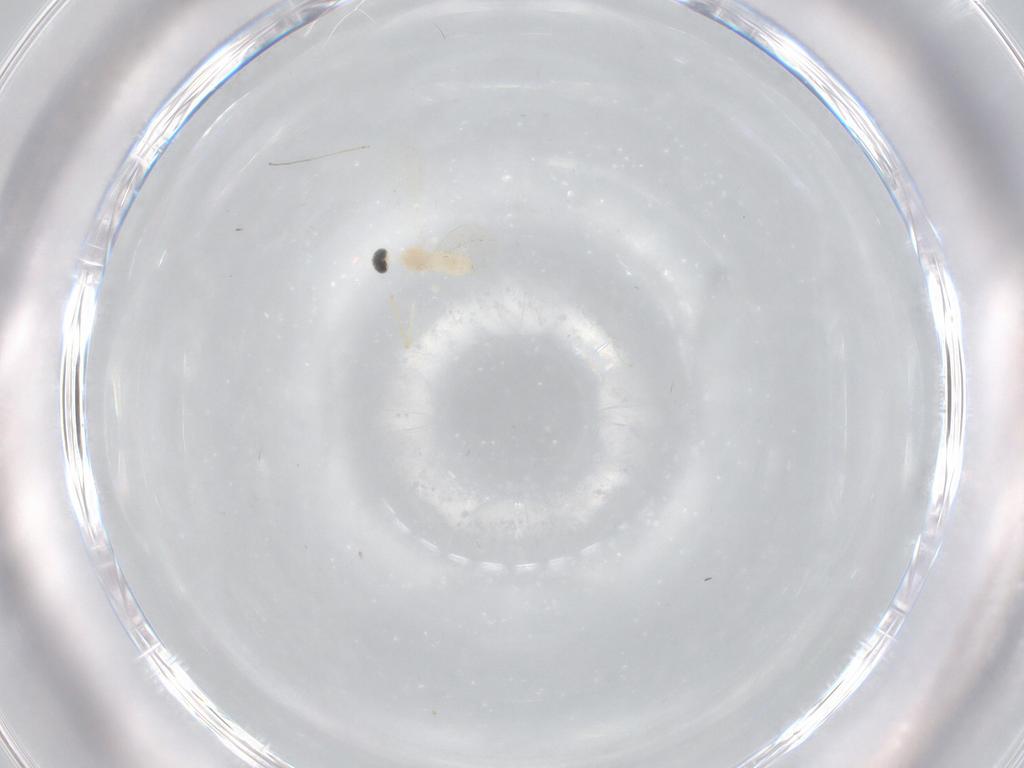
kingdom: Animalia
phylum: Arthropoda
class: Insecta
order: Diptera
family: Cecidomyiidae
